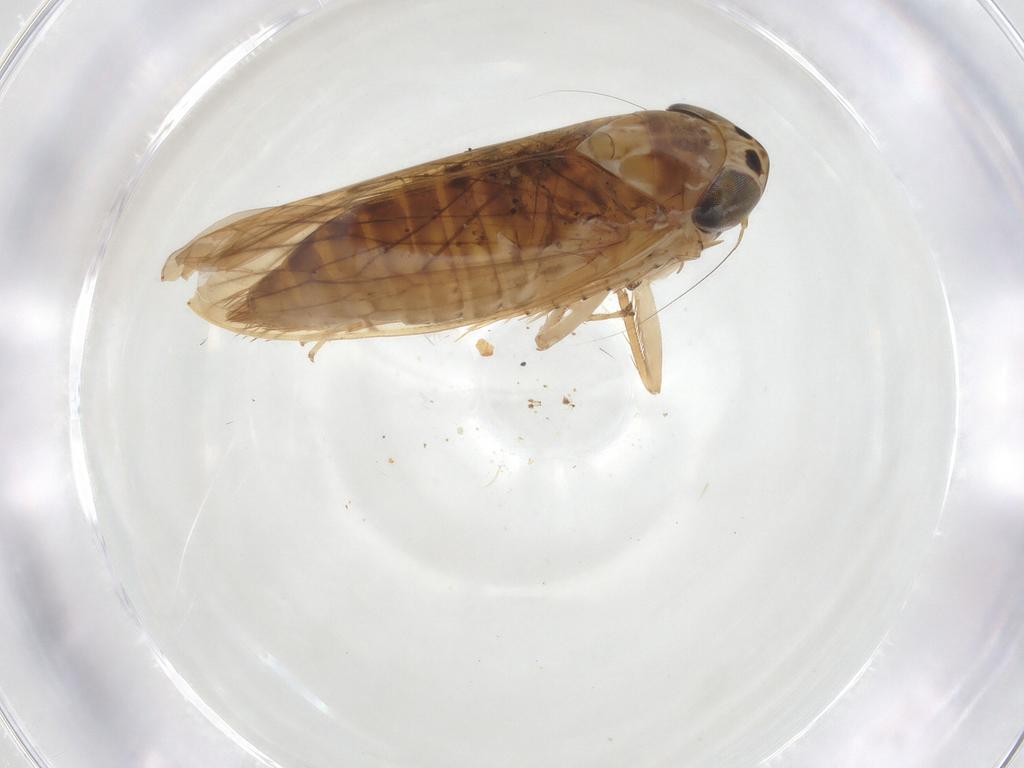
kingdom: Animalia
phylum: Arthropoda
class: Insecta
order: Hemiptera
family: Cicadellidae
